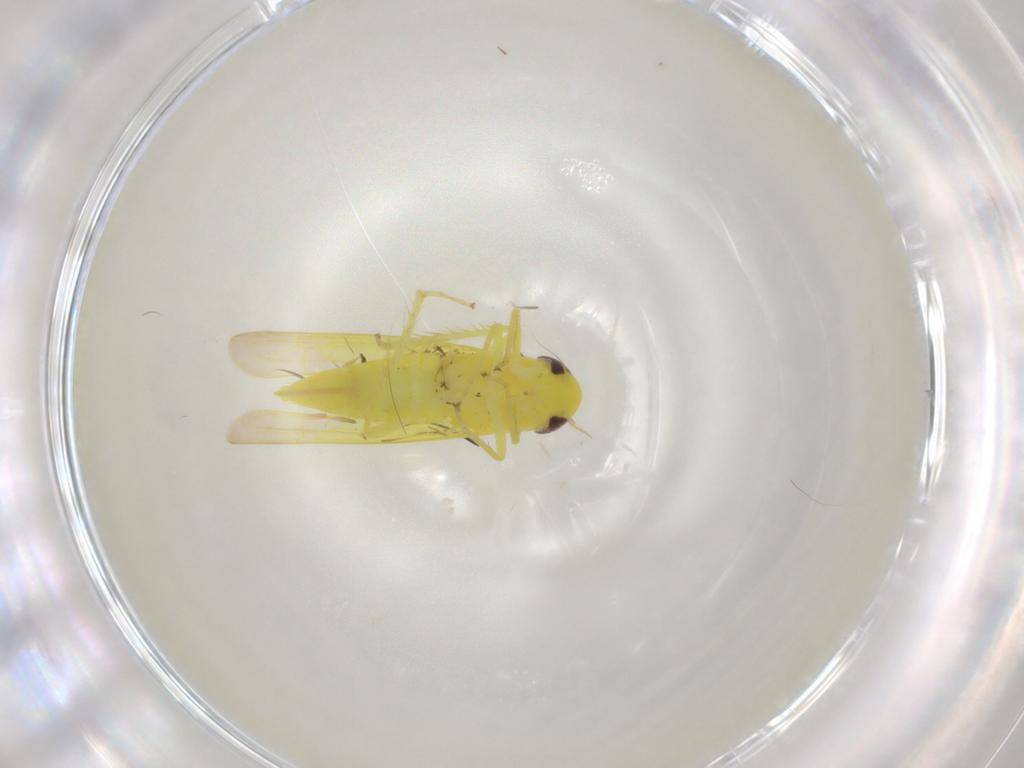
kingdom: Animalia
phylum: Arthropoda
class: Insecta
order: Hemiptera
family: Cicadellidae
